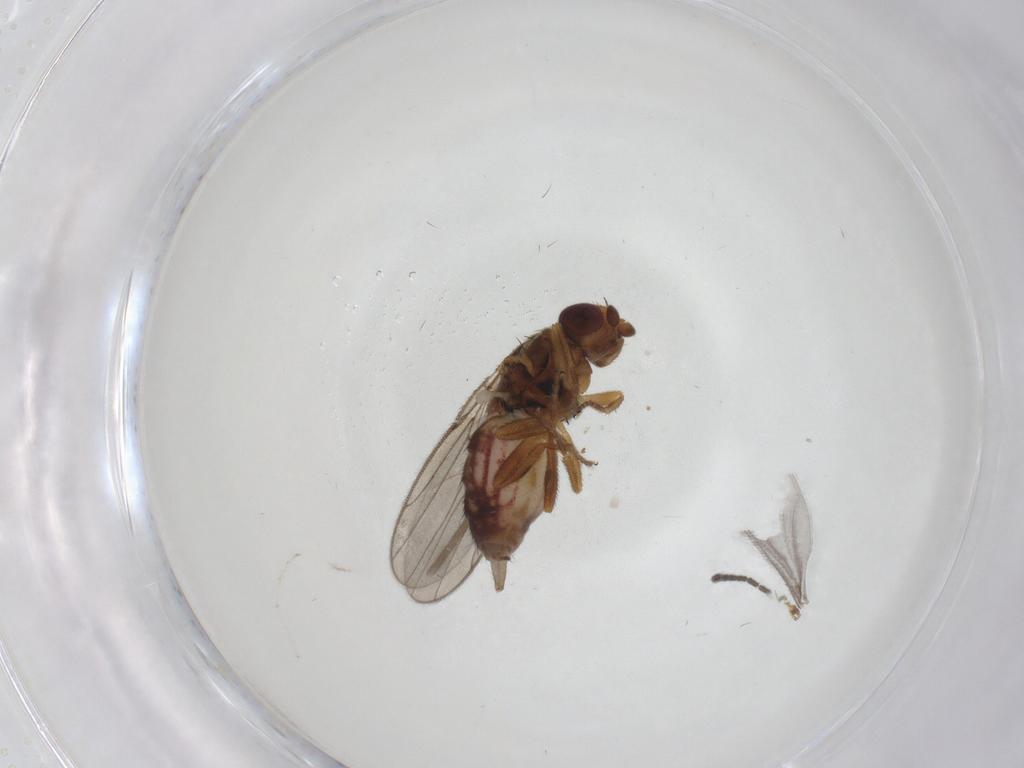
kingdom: Animalia
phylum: Arthropoda
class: Insecta
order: Diptera
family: Chloropidae
